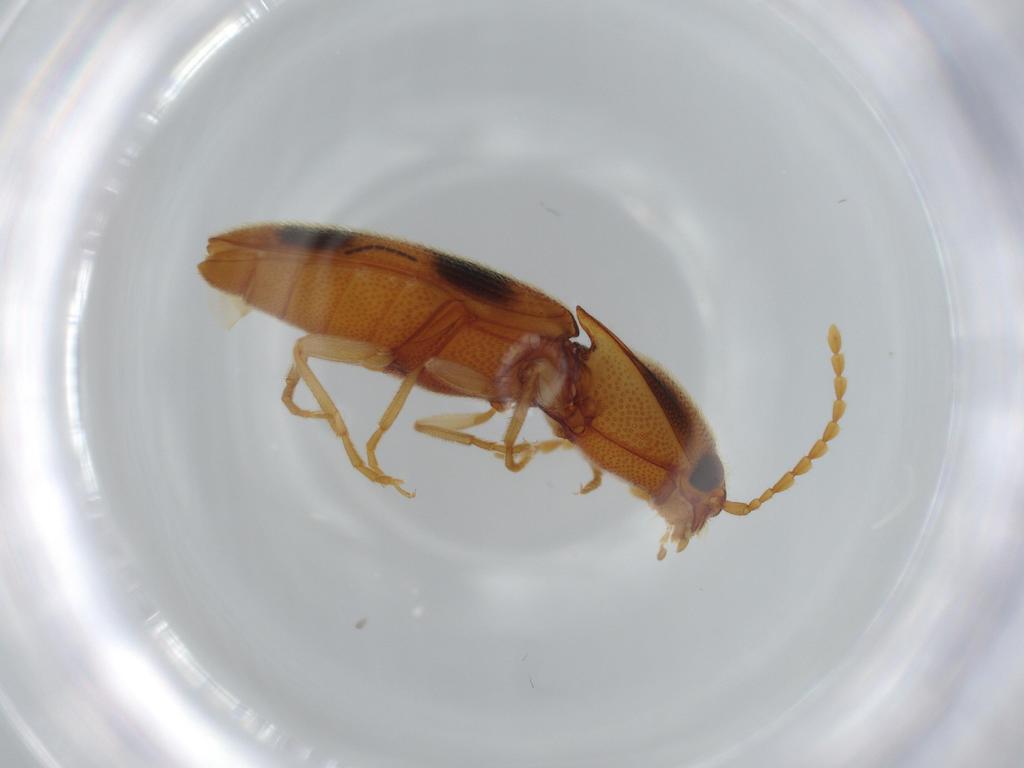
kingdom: Animalia
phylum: Arthropoda
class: Insecta
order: Coleoptera
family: Elateridae
